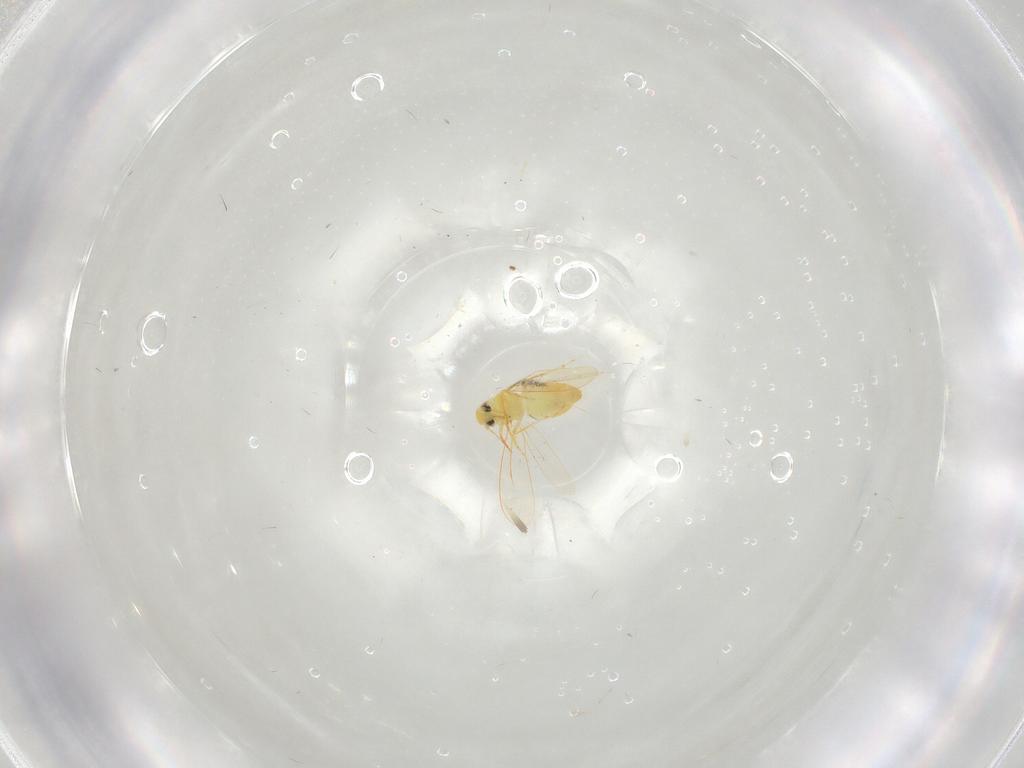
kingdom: Animalia
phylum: Arthropoda
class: Insecta
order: Hemiptera
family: Aleyrodidae
